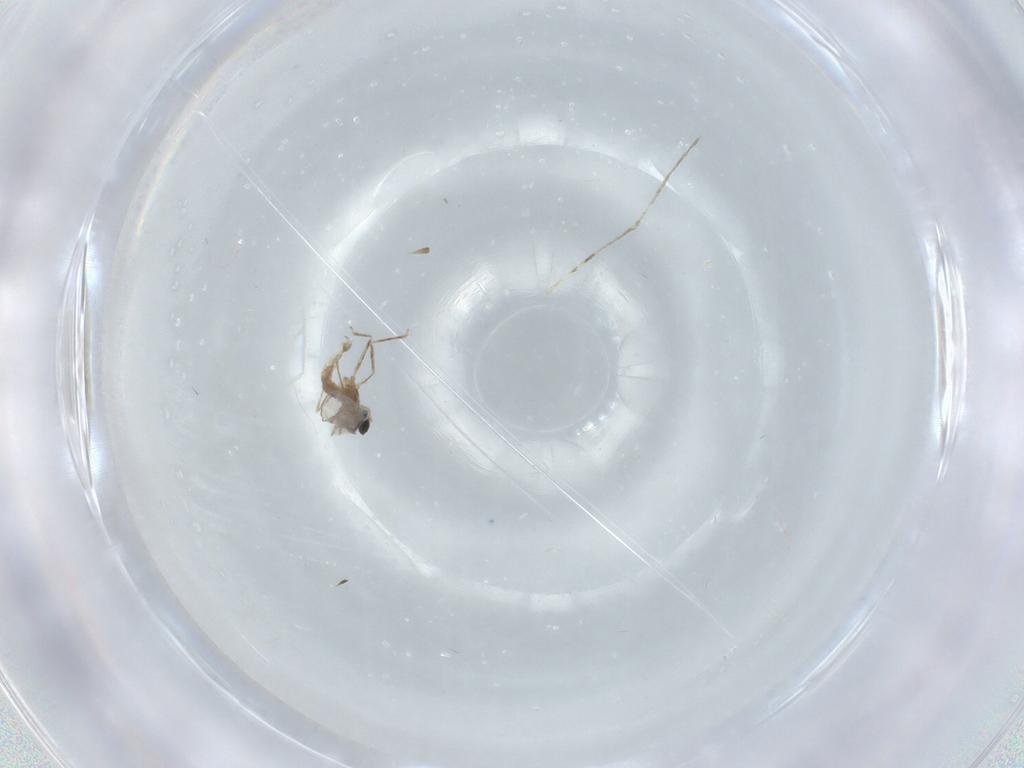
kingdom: Animalia
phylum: Arthropoda
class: Insecta
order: Diptera
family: Cecidomyiidae
